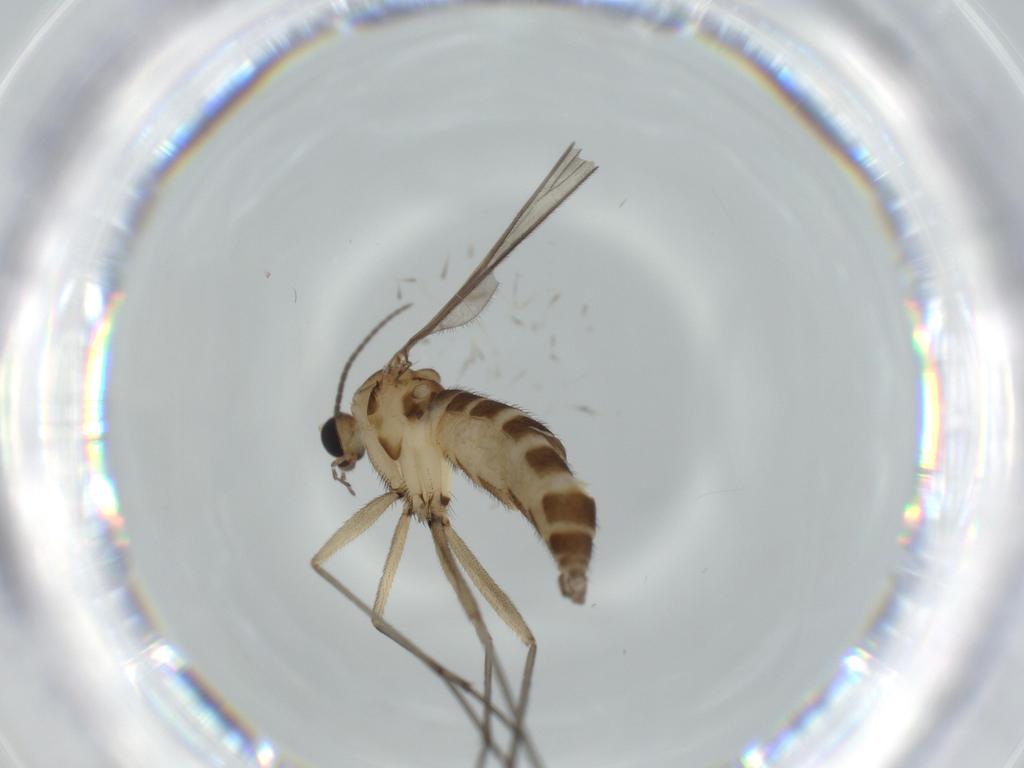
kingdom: Animalia
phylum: Arthropoda
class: Insecta
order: Diptera
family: Sciaridae
